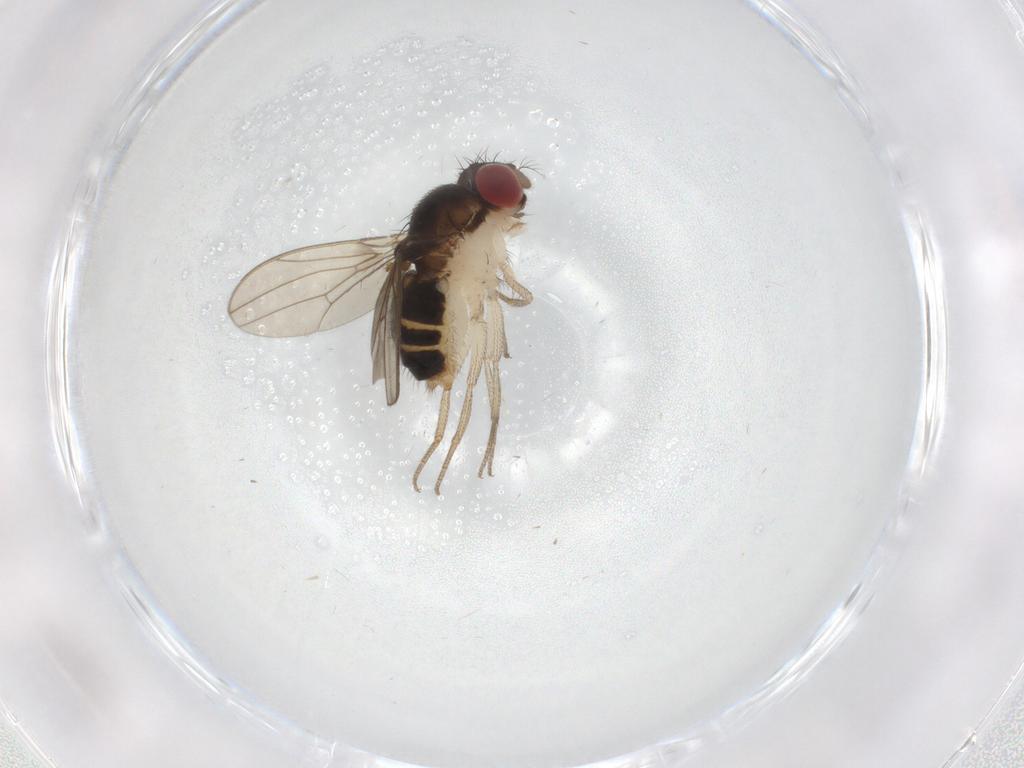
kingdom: Animalia
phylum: Arthropoda
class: Insecta
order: Diptera
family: Drosophilidae
